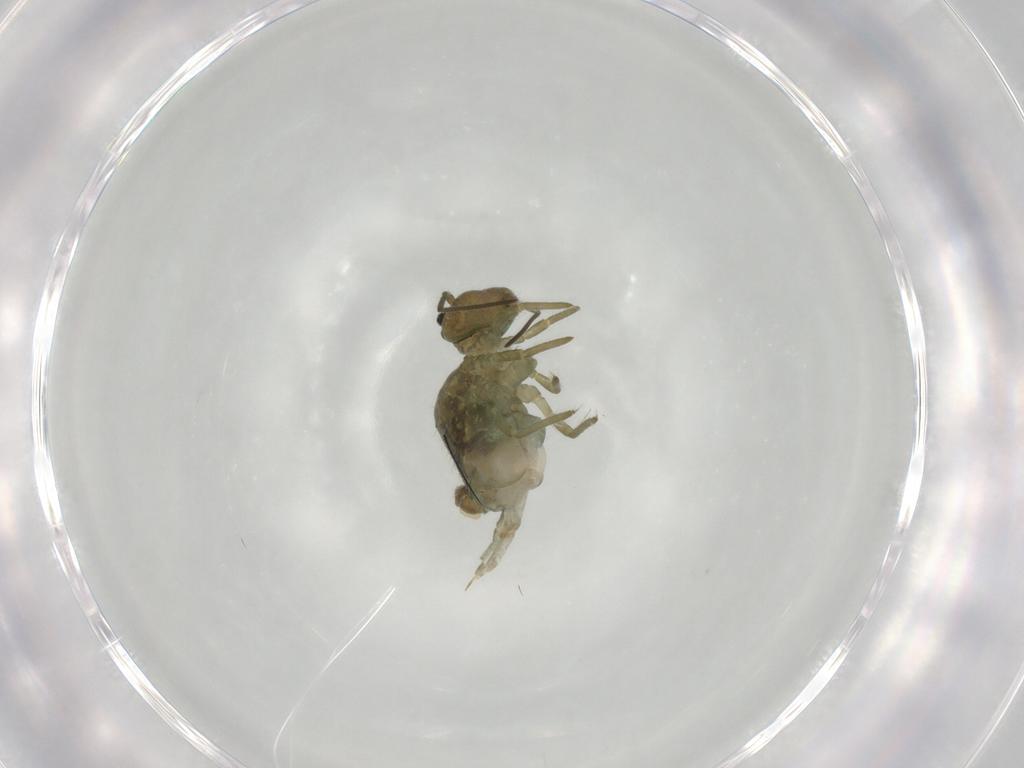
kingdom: Animalia
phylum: Arthropoda
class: Collembola
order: Symphypleona
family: Sminthuridae
